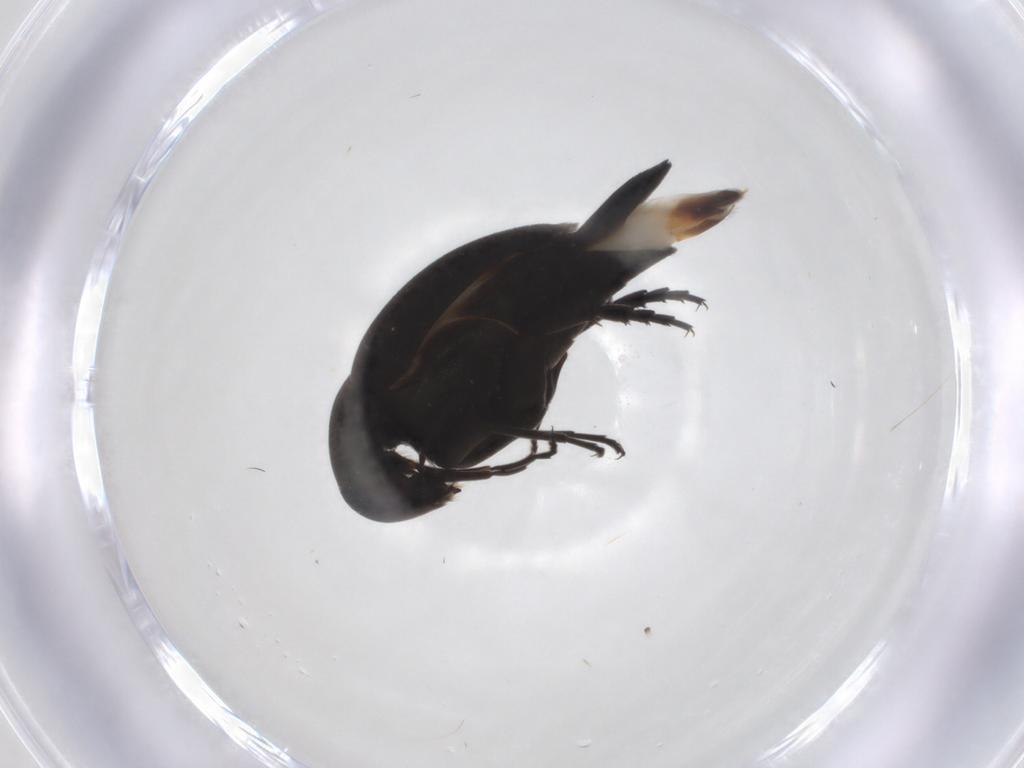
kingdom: Animalia
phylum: Arthropoda
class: Insecta
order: Coleoptera
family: Mordellidae
